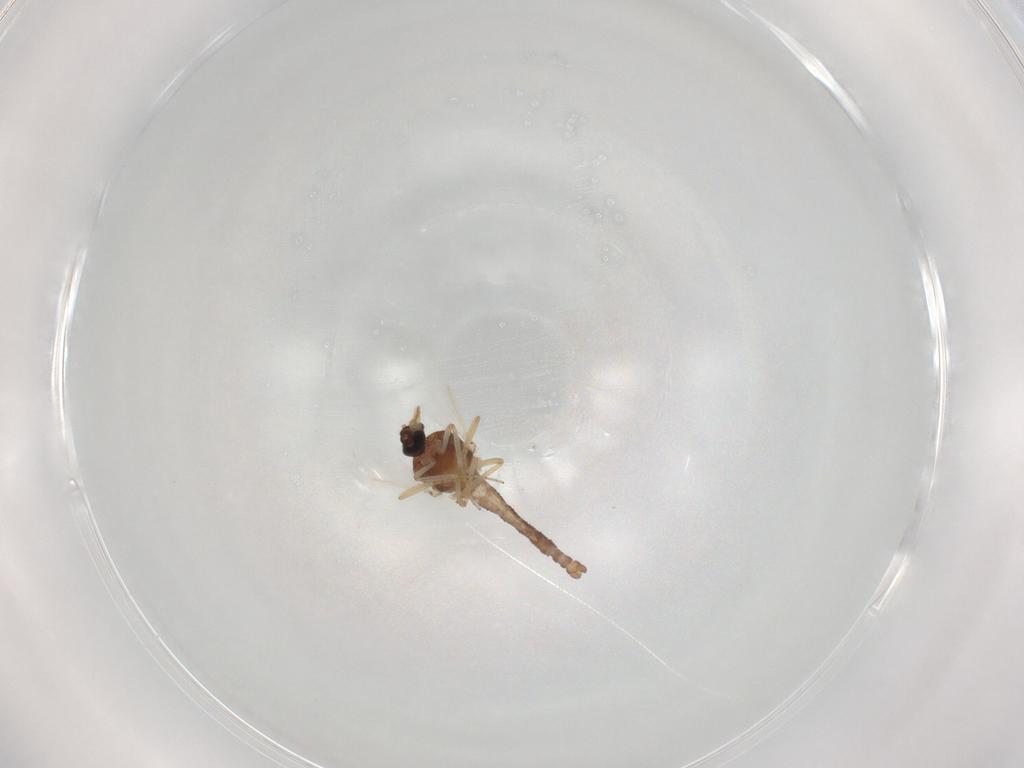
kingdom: Animalia
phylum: Arthropoda
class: Insecta
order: Diptera
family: Ceratopogonidae
